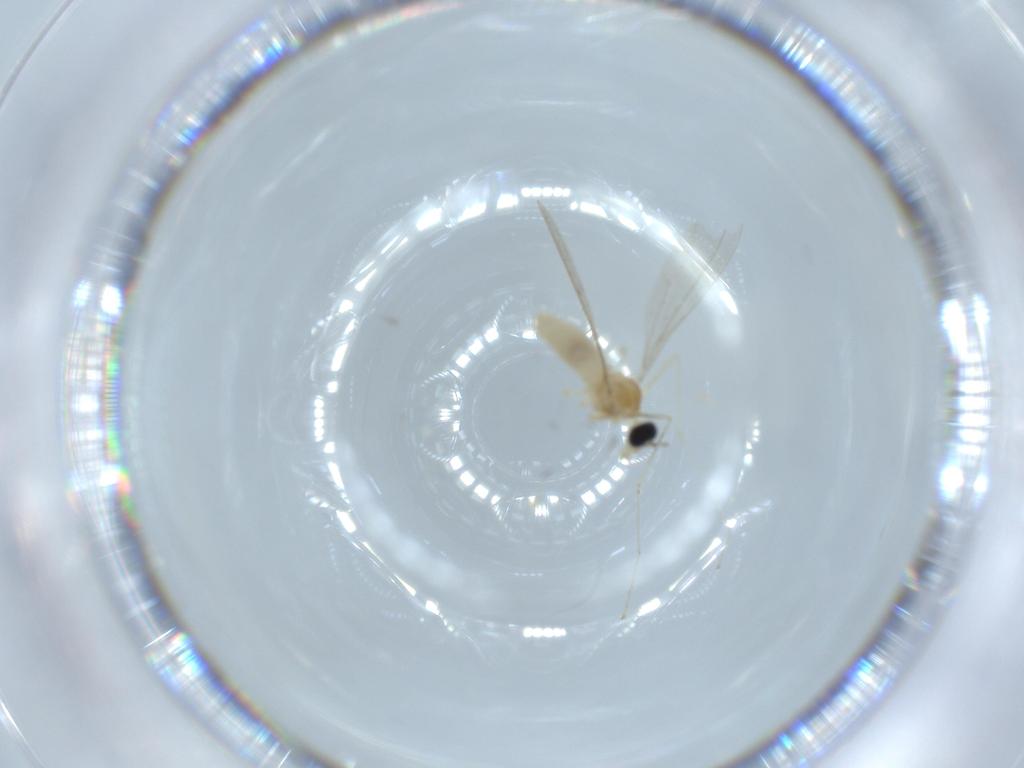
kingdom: Animalia
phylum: Arthropoda
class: Insecta
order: Diptera
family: Cecidomyiidae
